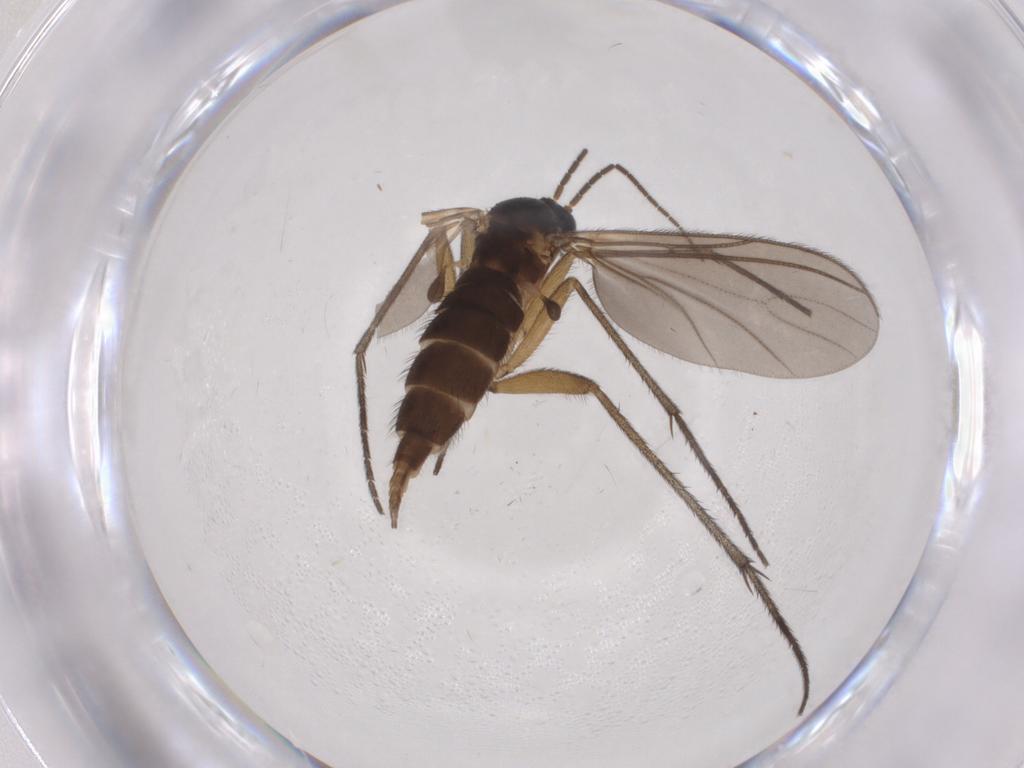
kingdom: Animalia
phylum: Arthropoda
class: Insecta
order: Diptera
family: Sciaridae
